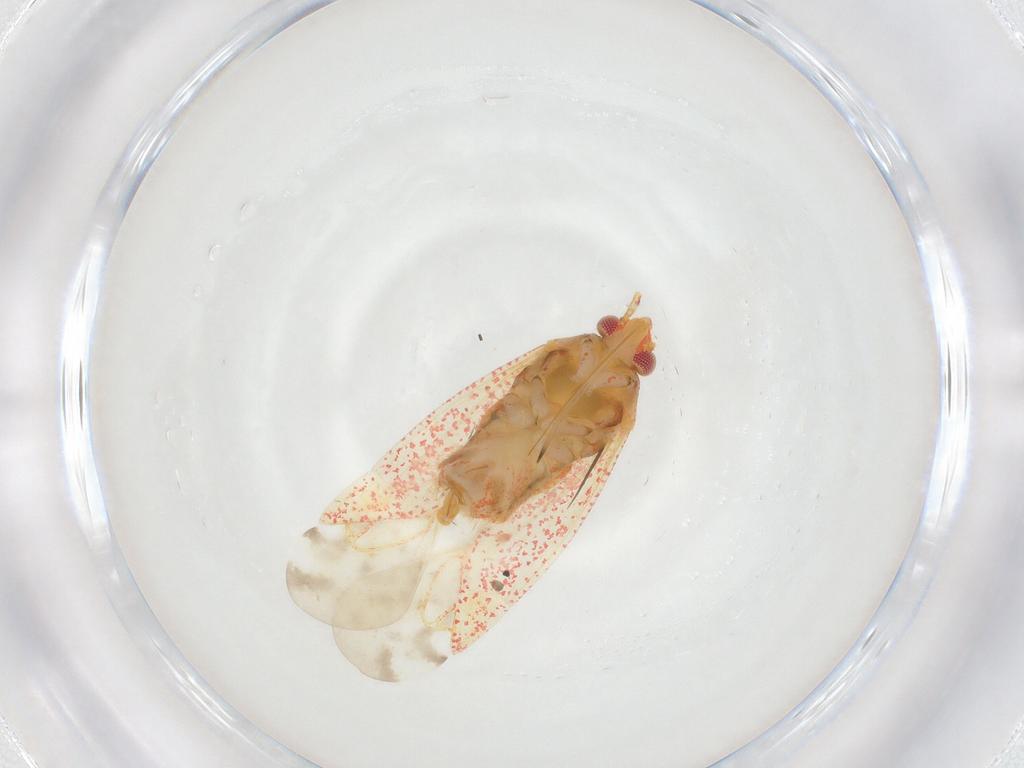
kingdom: Animalia
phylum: Arthropoda
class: Insecta
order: Hemiptera
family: Miridae
